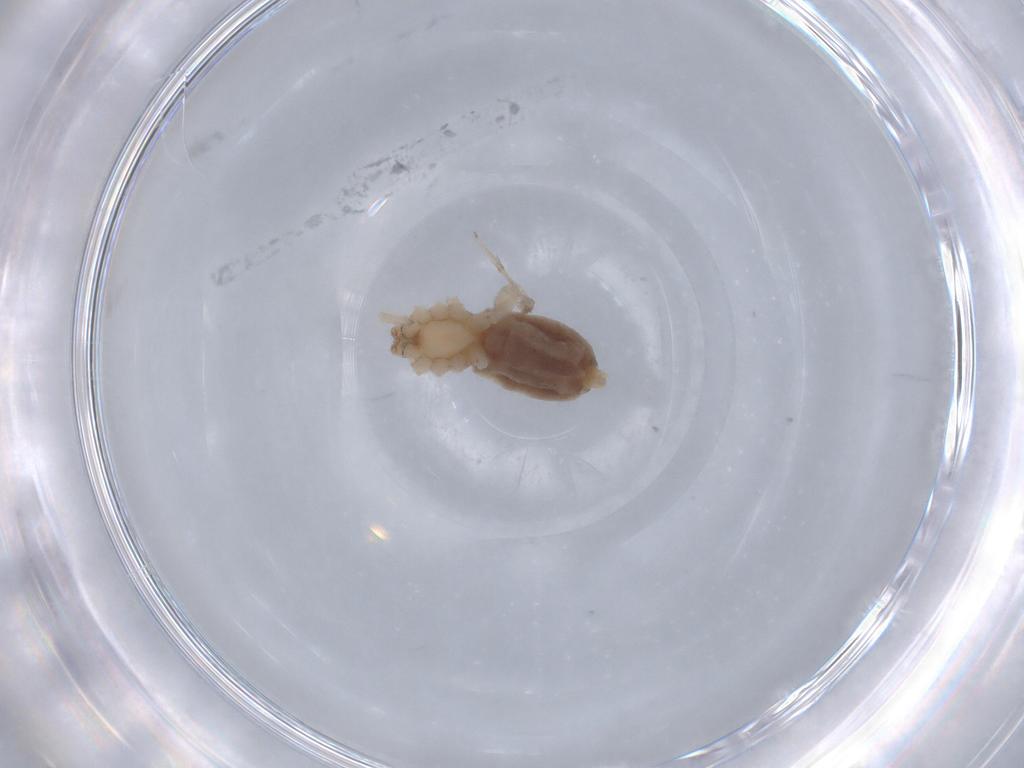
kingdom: Animalia
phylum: Arthropoda
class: Arachnida
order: Araneae
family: Gnaphosidae
